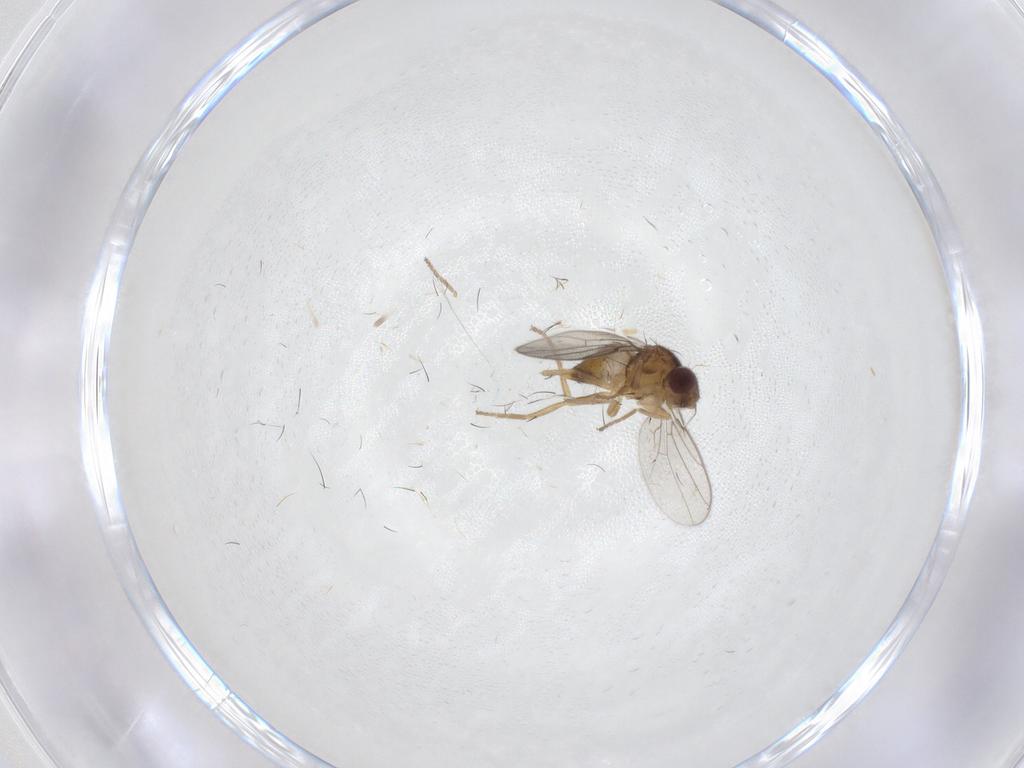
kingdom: Animalia
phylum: Arthropoda
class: Insecta
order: Diptera
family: Chloropidae
